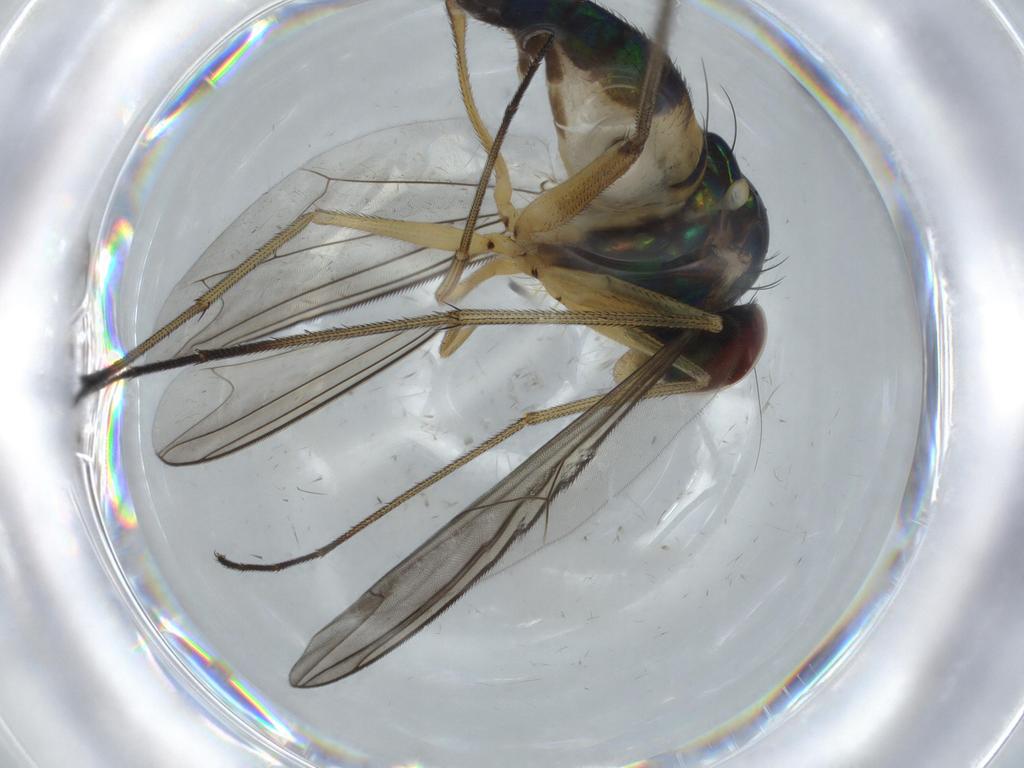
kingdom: Animalia
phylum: Arthropoda
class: Insecta
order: Diptera
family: Dolichopodidae
